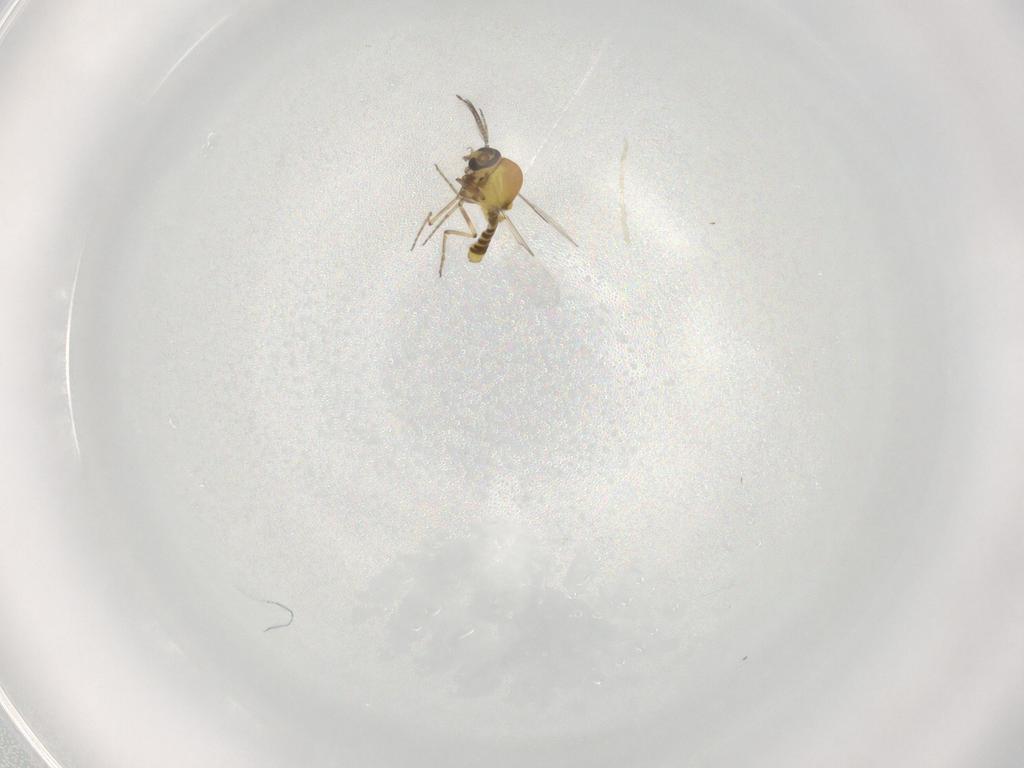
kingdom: Animalia
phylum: Arthropoda
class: Insecta
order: Diptera
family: Ceratopogonidae
